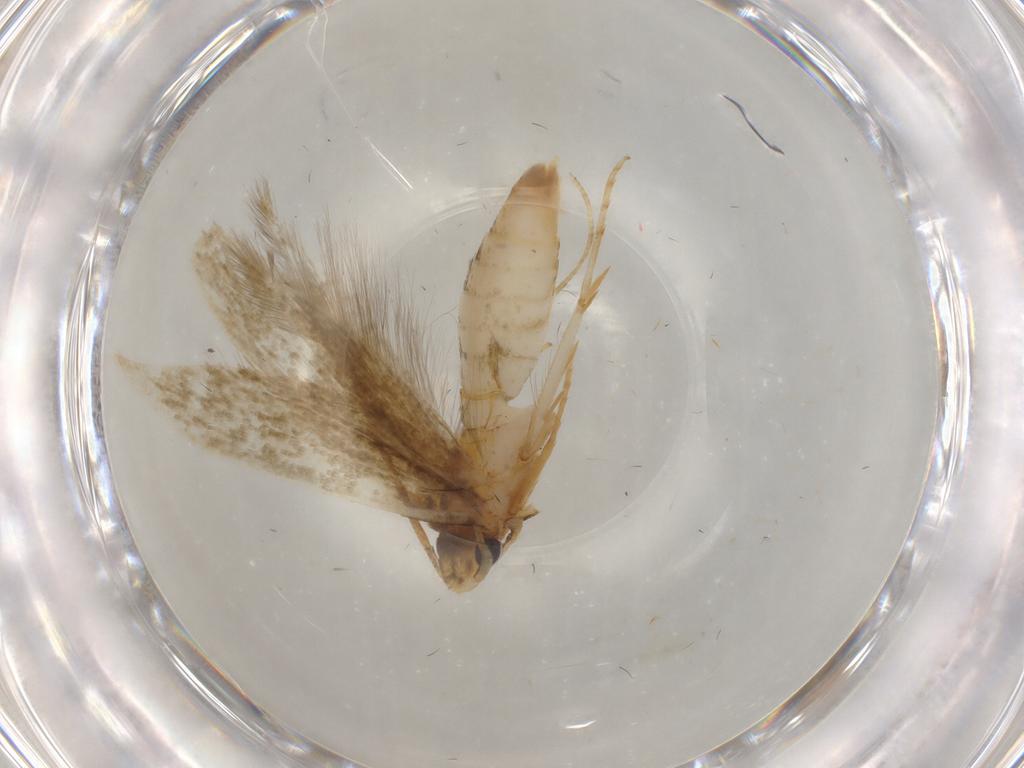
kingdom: Animalia
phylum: Arthropoda
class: Insecta
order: Lepidoptera
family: Tineidae
